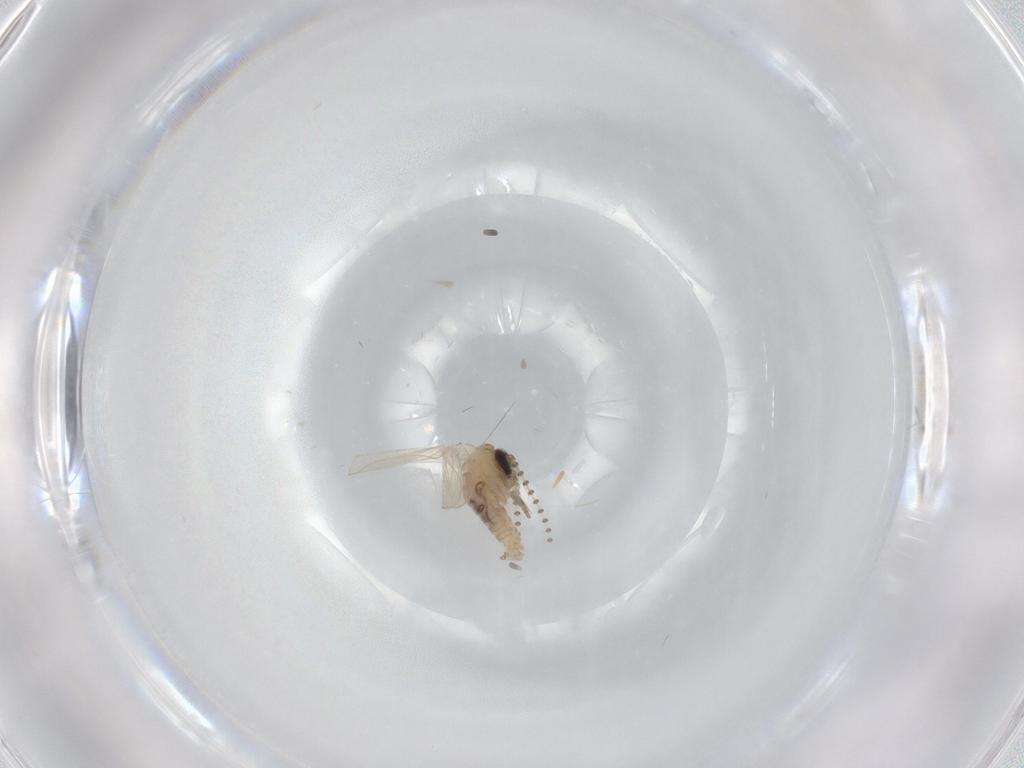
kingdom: Animalia
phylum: Arthropoda
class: Insecta
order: Diptera
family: Psychodidae
